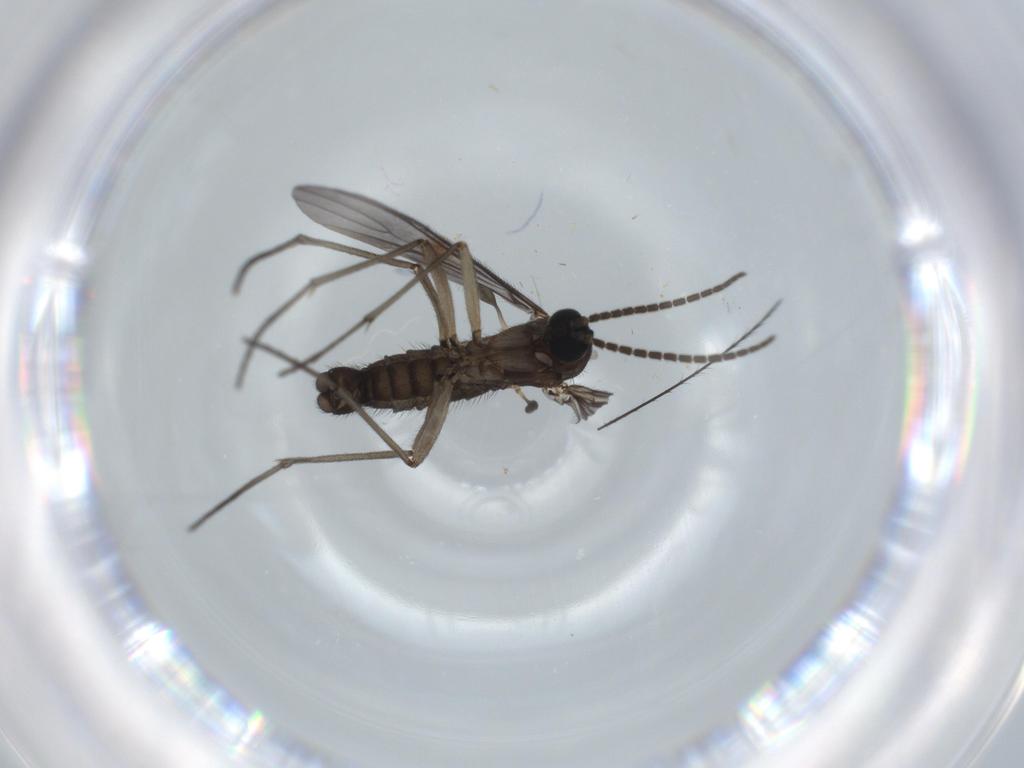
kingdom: Animalia
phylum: Arthropoda
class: Insecta
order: Diptera
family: Sciaridae
